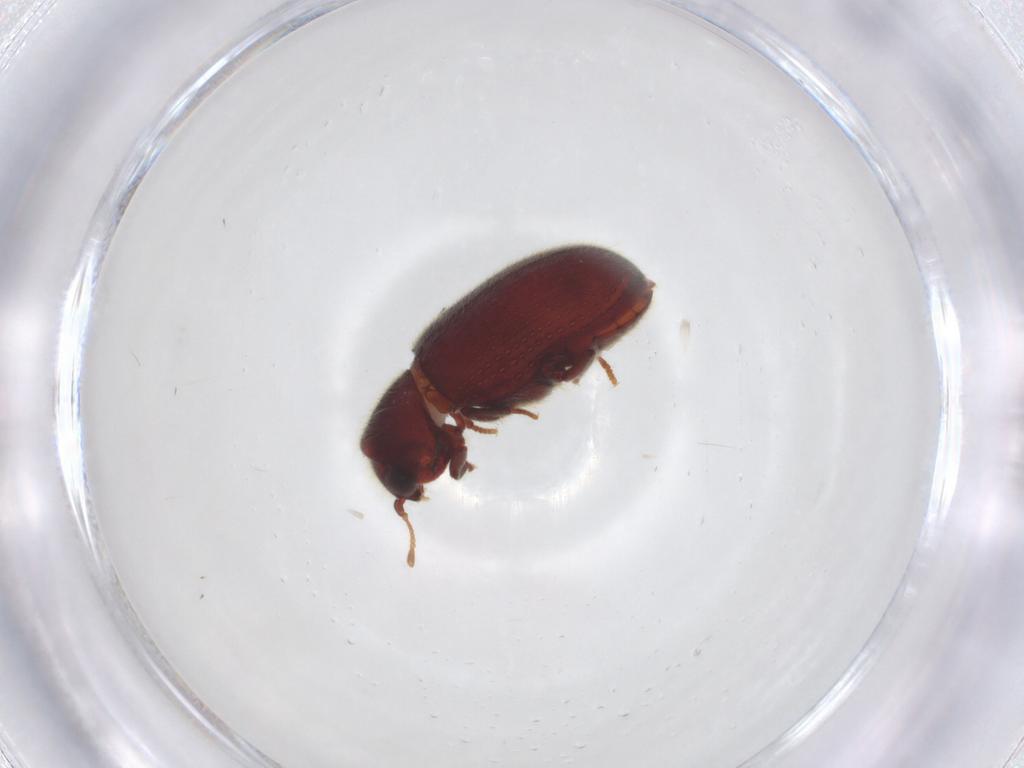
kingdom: Animalia
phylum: Arthropoda
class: Insecta
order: Coleoptera
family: Ptinidae
